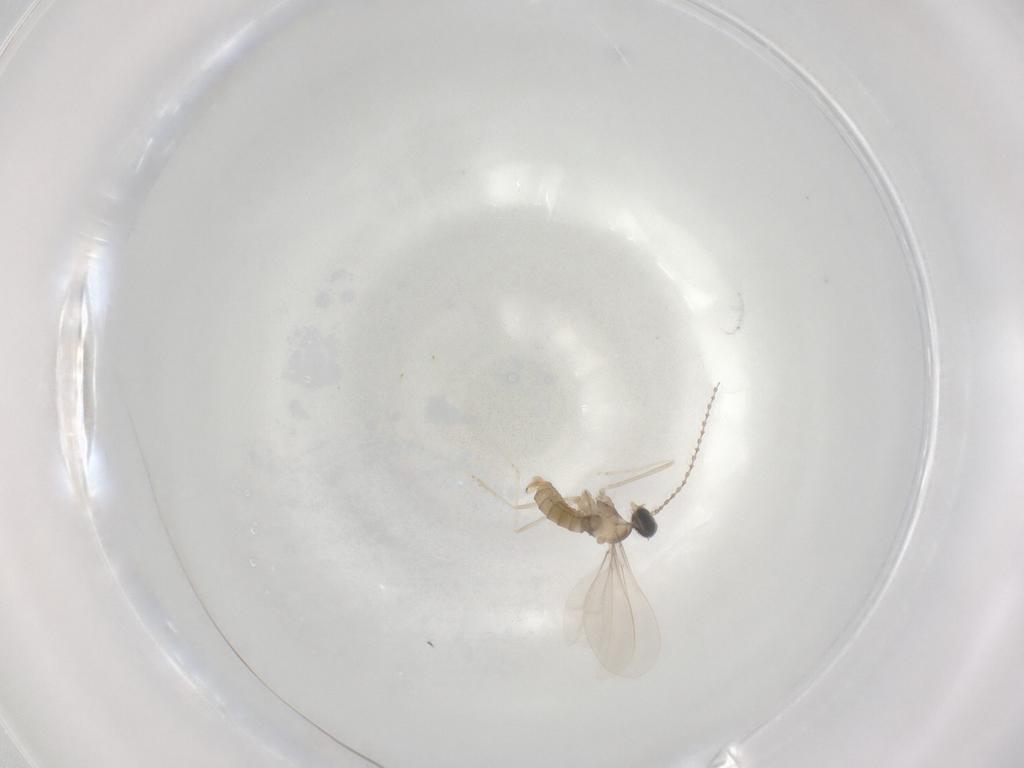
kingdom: Animalia
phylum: Arthropoda
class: Insecta
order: Diptera
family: Cecidomyiidae
